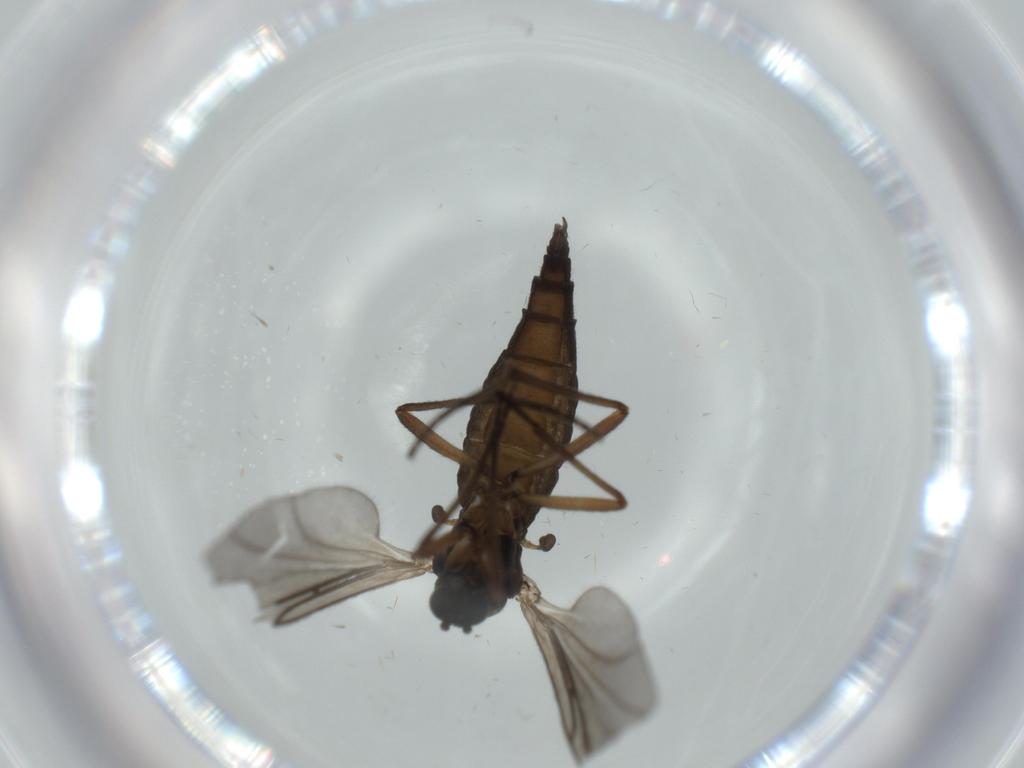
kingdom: Animalia
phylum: Arthropoda
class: Insecta
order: Diptera
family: Sciaridae
